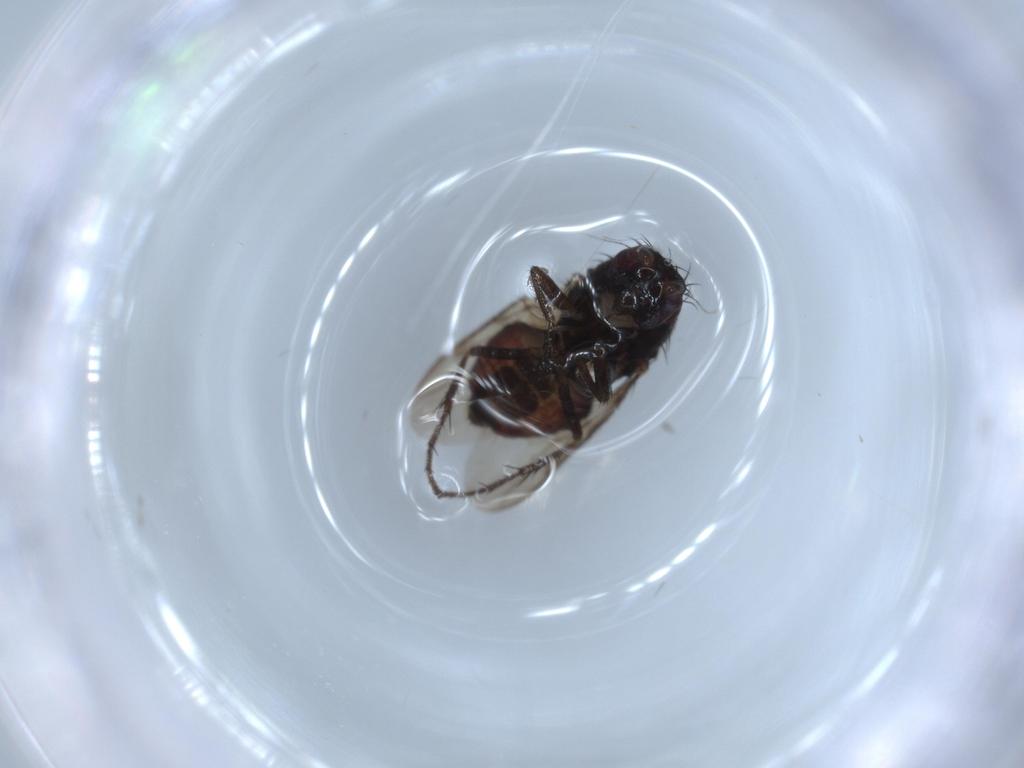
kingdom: Animalia
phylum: Arthropoda
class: Insecta
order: Diptera
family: Sphaeroceridae
